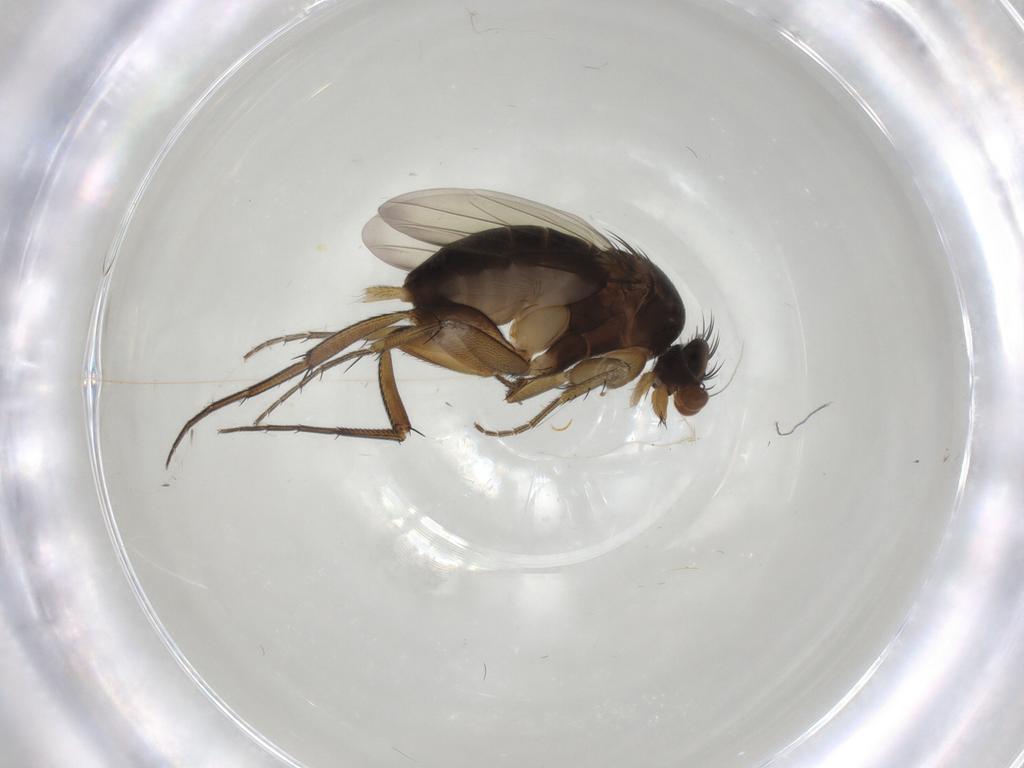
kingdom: Animalia
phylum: Arthropoda
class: Insecta
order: Diptera
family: Phoridae
